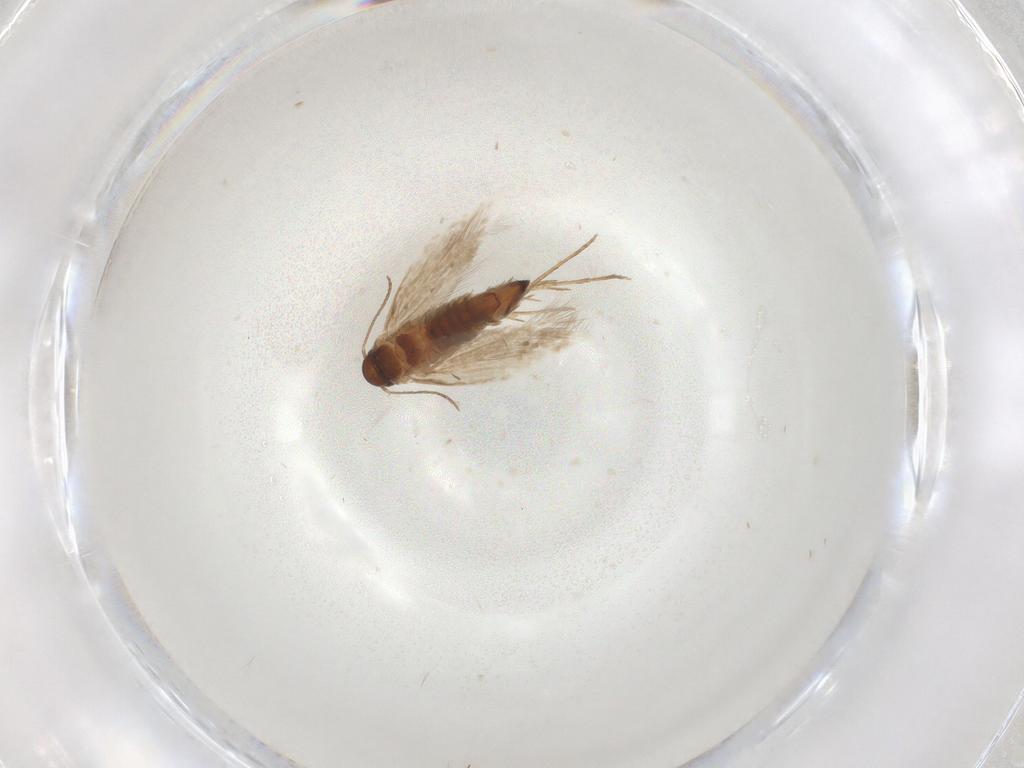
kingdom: Animalia
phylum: Arthropoda
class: Insecta
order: Lepidoptera
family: Heliozelidae
